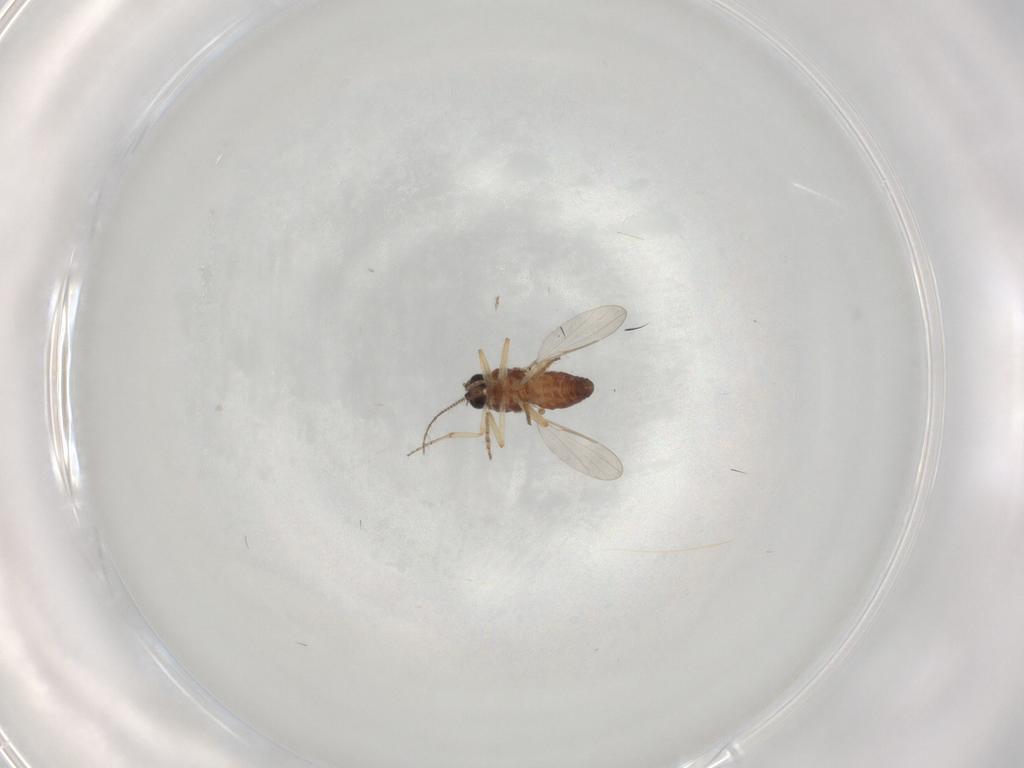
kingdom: Animalia
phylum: Arthropoda
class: Insecta
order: Diptera
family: Ceratopogonidae
